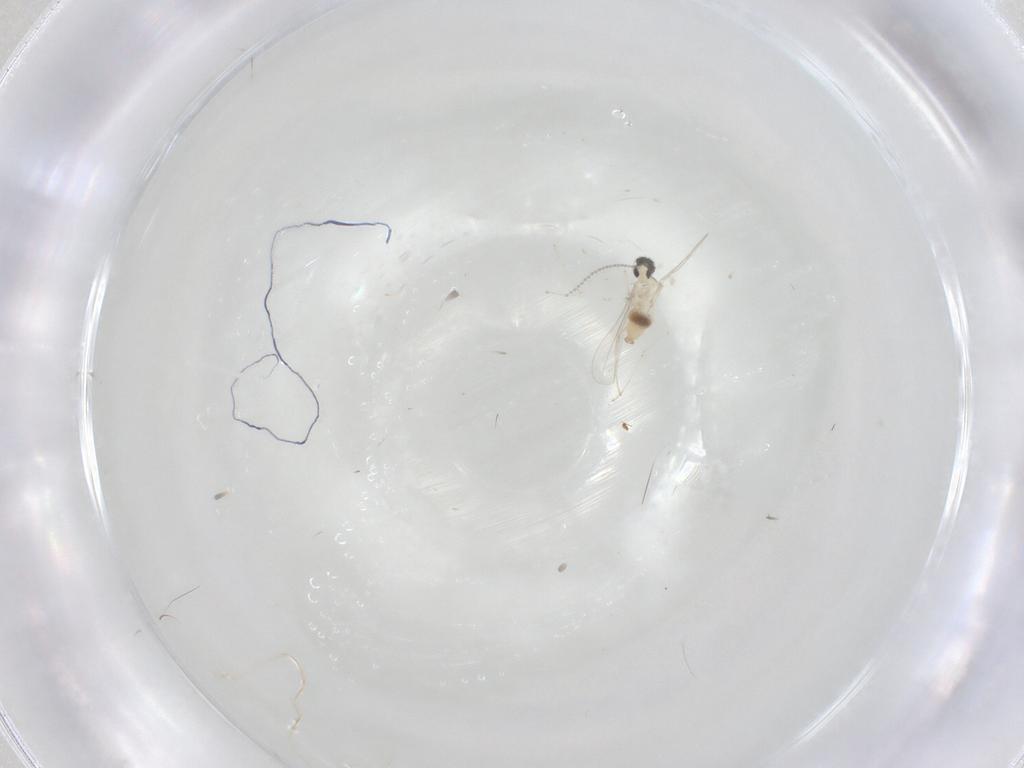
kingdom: Animalia
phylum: Arthropoda
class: Insecta
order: Diptera
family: Cecidomyiidae
